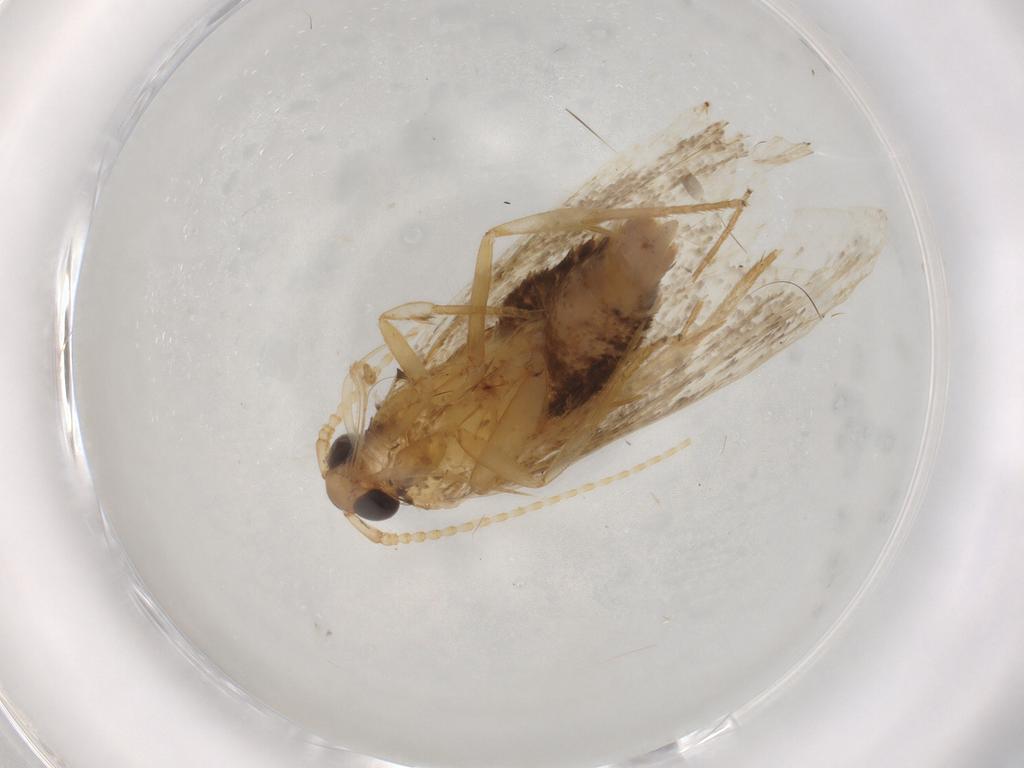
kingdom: Animalia
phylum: Arthropoda
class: Insecta
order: Lepidoptera
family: Lecithoceridae
